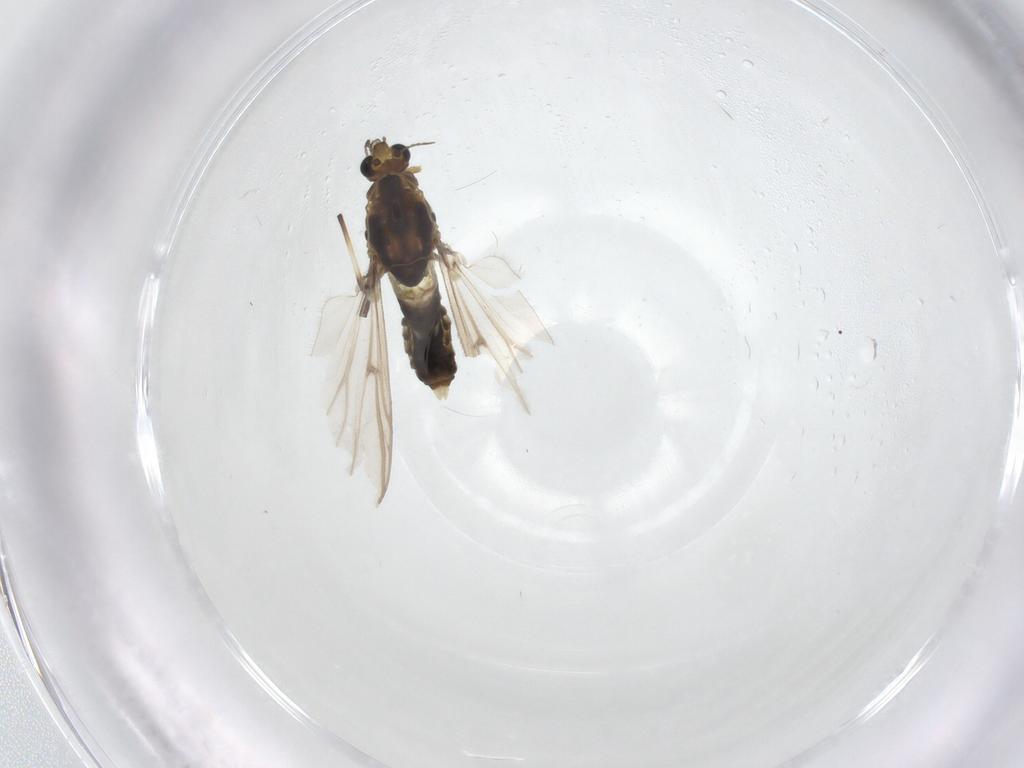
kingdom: Animalia
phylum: Arthropoda
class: Insecta
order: Diptera
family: Chironomidae
